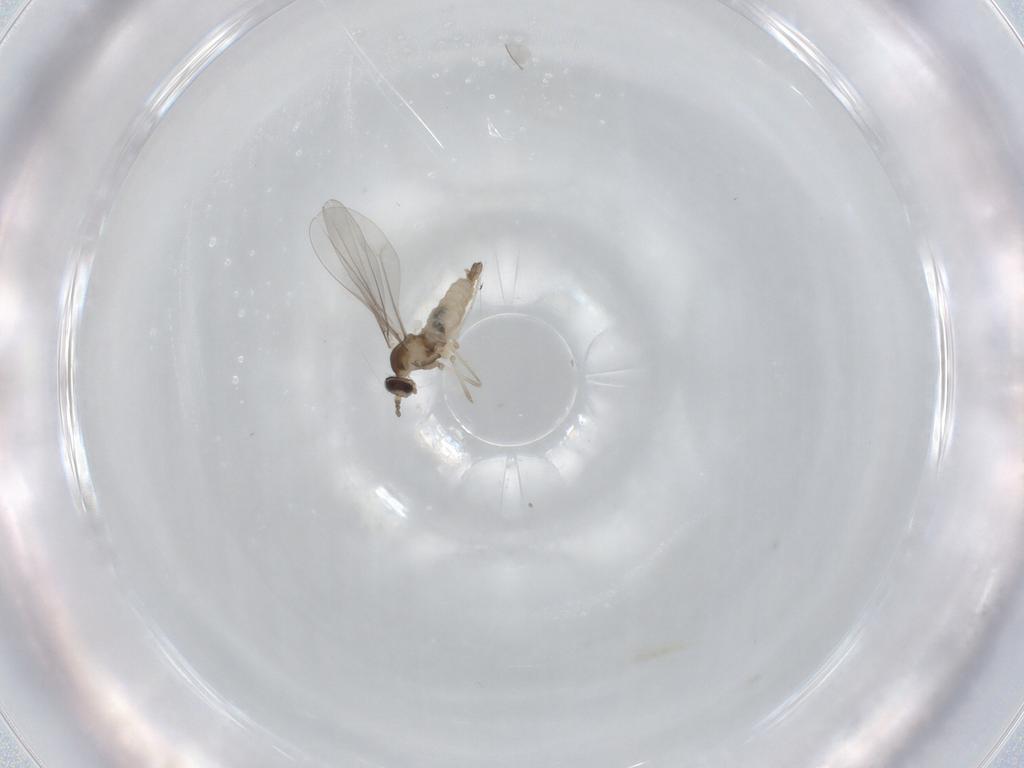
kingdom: Animalia
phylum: Arthropoda
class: Insecta
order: Diptera
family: Cecidomyiidae
